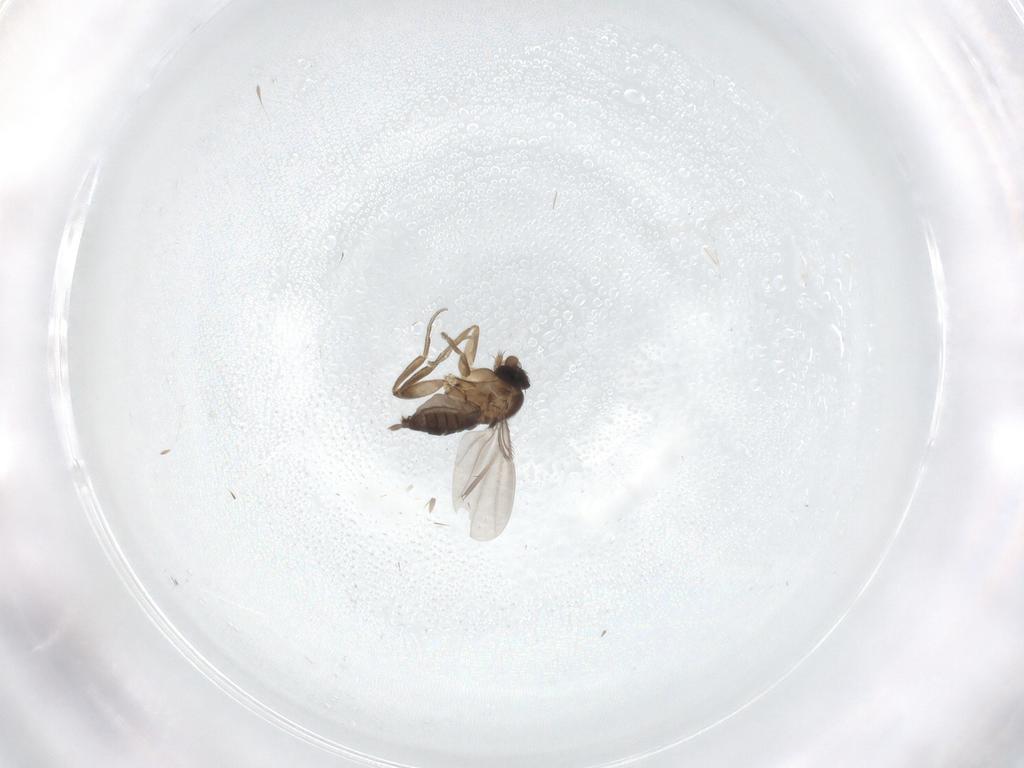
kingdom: Animalia
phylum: Arthropoda
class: Insecta
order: Diptera
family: Phoridae
